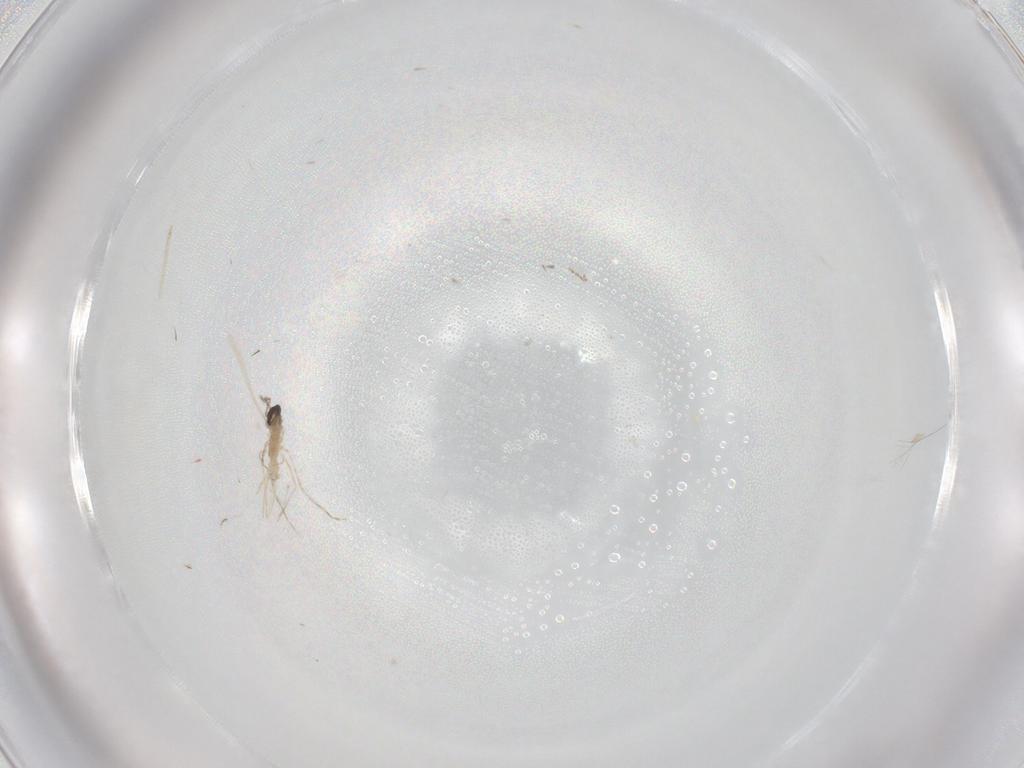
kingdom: Animalia
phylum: Arthropoda
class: Insecta
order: Diptera
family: Cecidomyiidae
